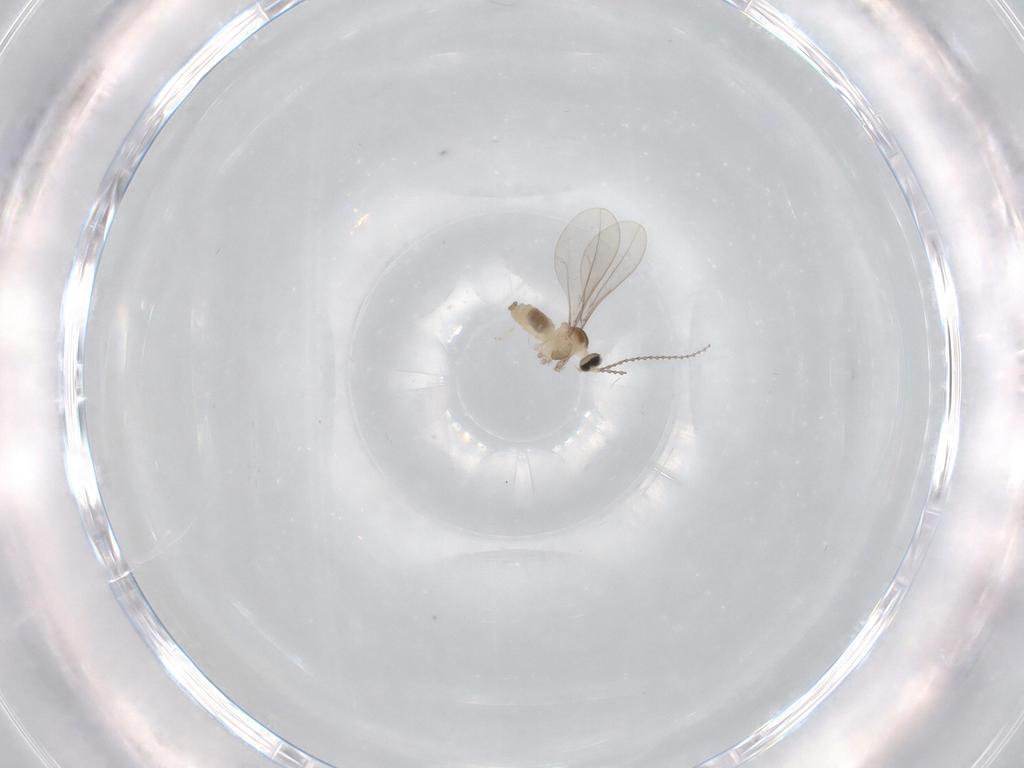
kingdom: Animalia
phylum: Arthropoda
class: Insecta
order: Diptera
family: Cecidomyiidae
